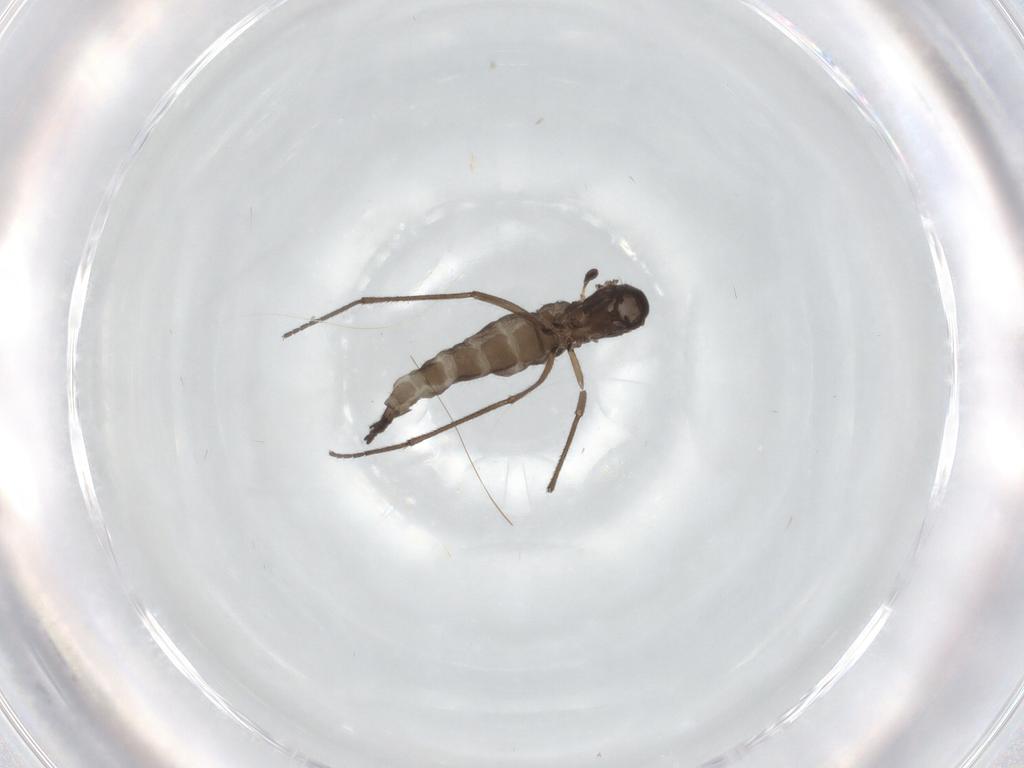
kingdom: Animalia
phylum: Arthropoda
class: Insecta
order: Diptera
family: Sciaridae
